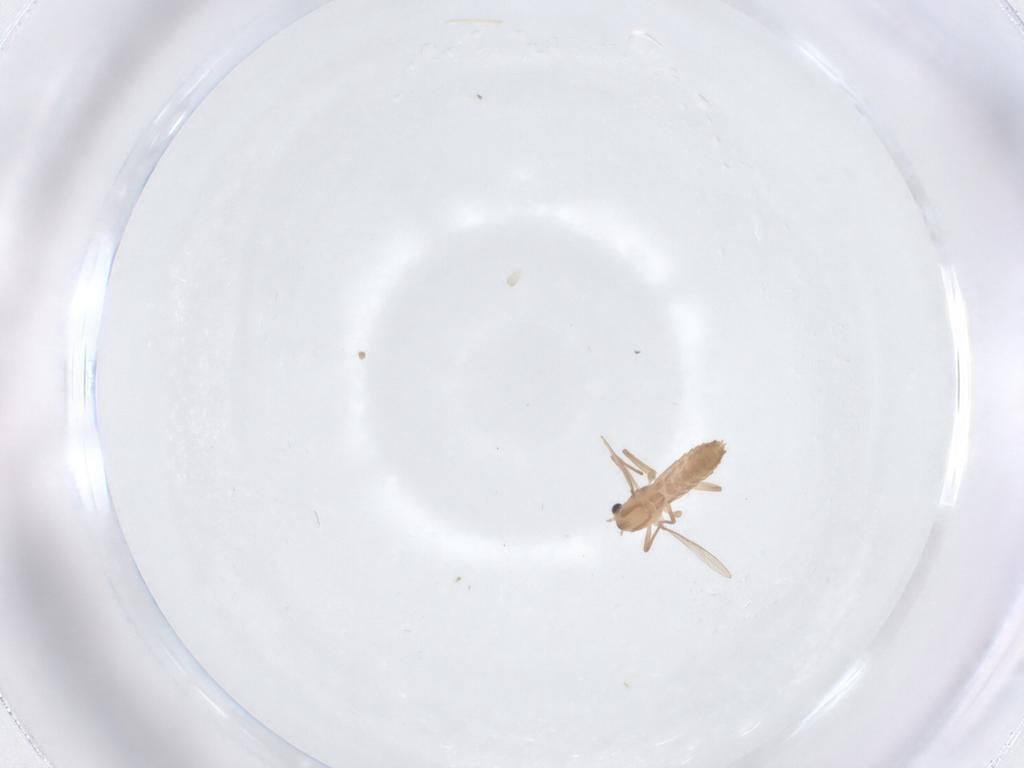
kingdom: Animalia
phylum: Arthropoda
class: Insecta
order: Diptera
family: Chironomidae
